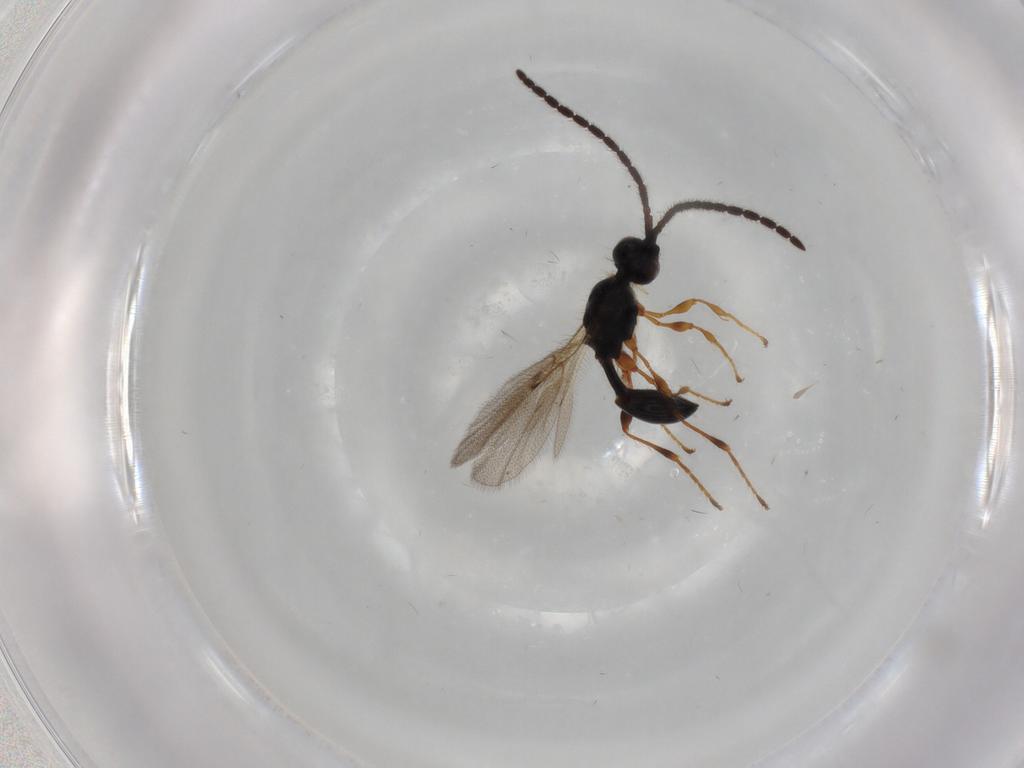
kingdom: Animalia
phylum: Arthropoda
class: Insecta
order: Hymenoptera
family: Diapriidae
